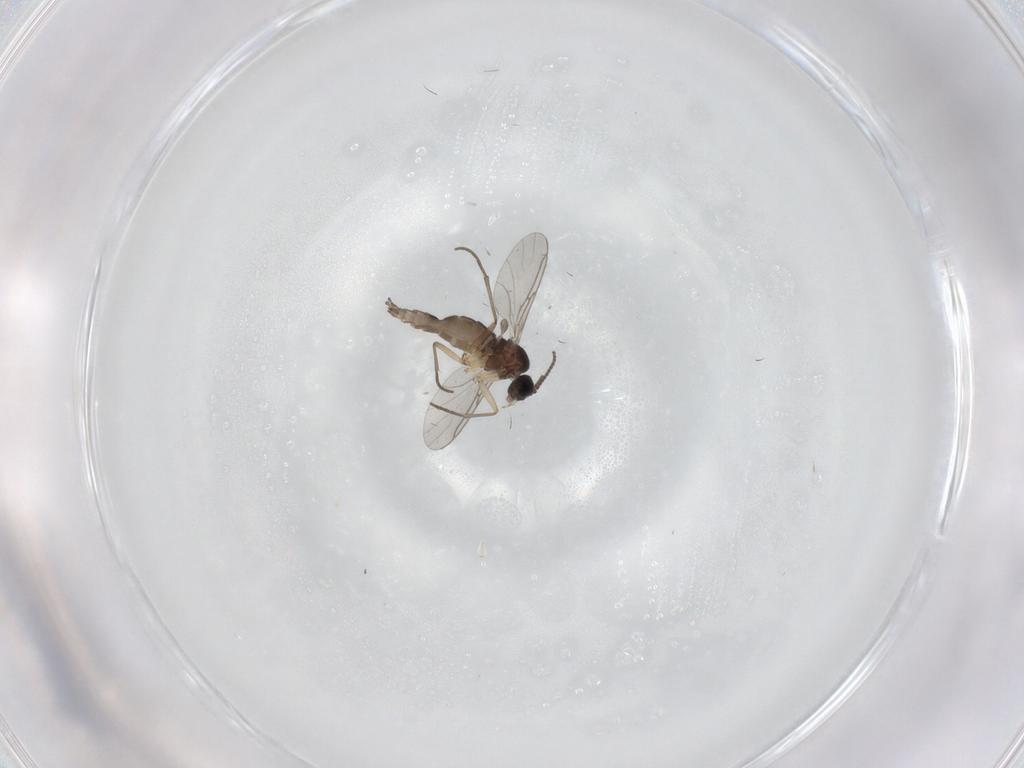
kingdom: Animalia
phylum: Arthropoda
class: Insecta
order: Diptera
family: Sciaridae
